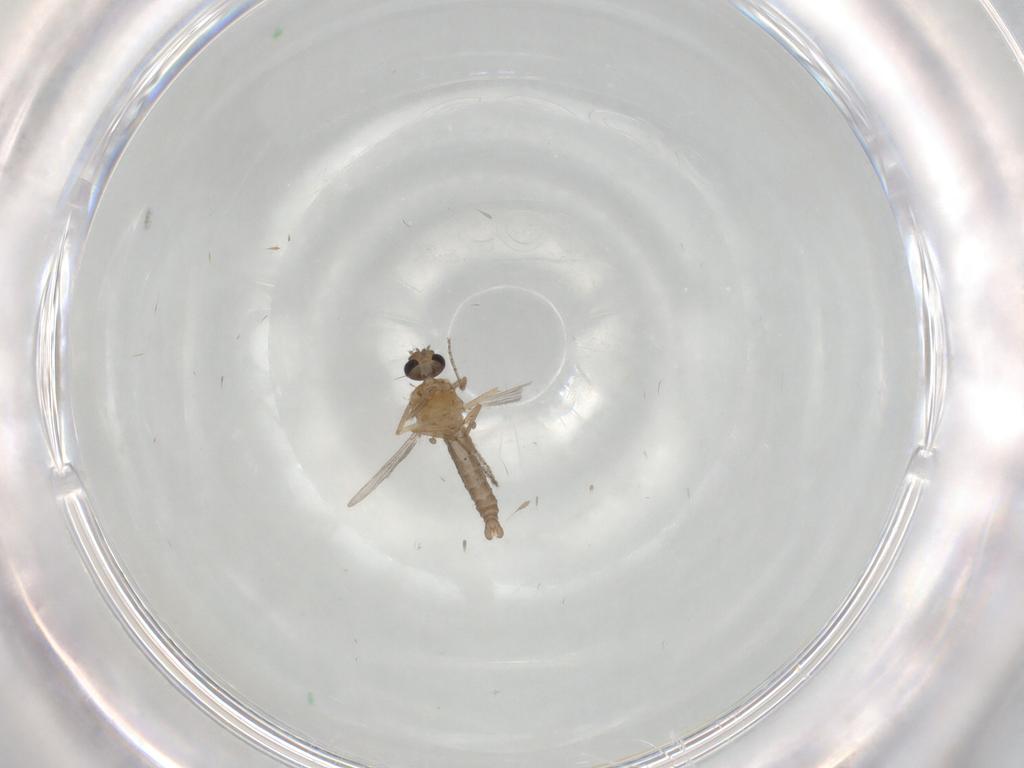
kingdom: Animalia
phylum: Arthropoda
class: Insecta
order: Diptera
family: Ceratopogonidae
